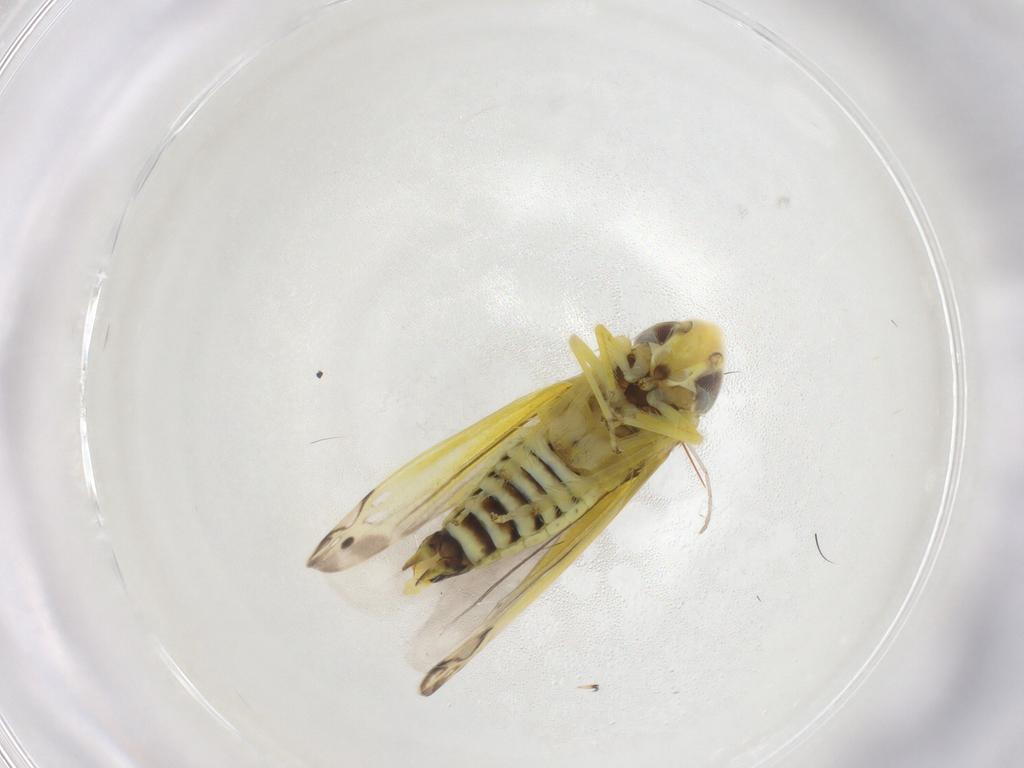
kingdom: Animalia
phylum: Arthropoda
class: Insecta
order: Hemiptera
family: Cicadellidae
